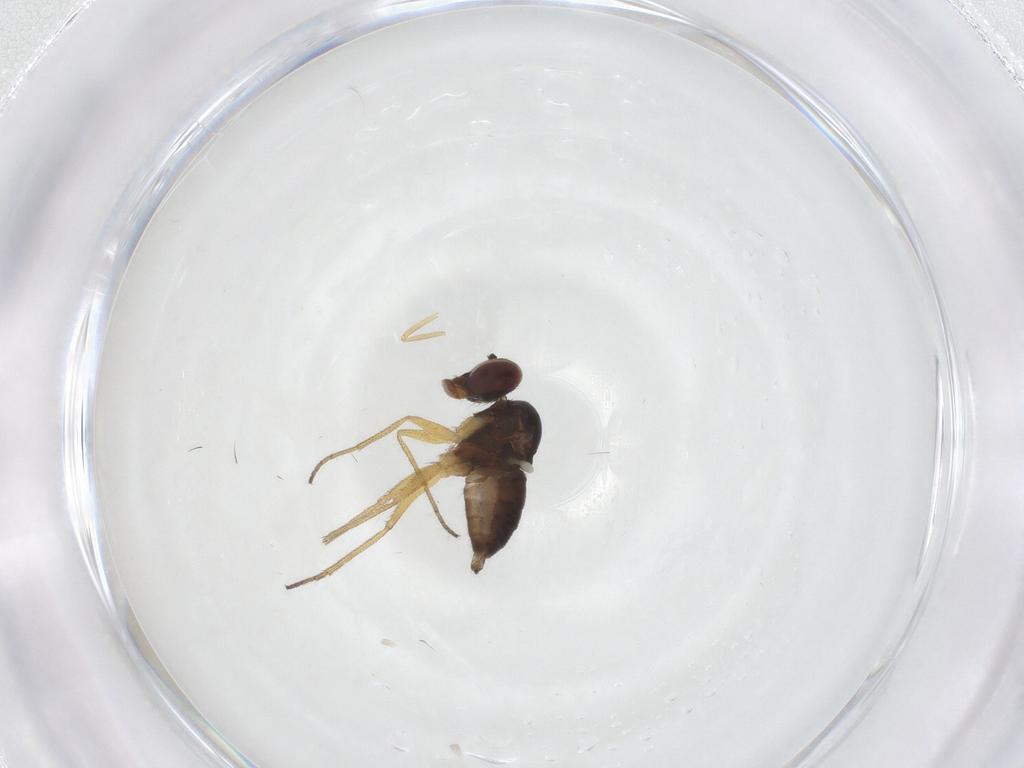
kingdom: Animalia
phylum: Arthropoda
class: Insecta
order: Diptera
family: Dolichopodidae
